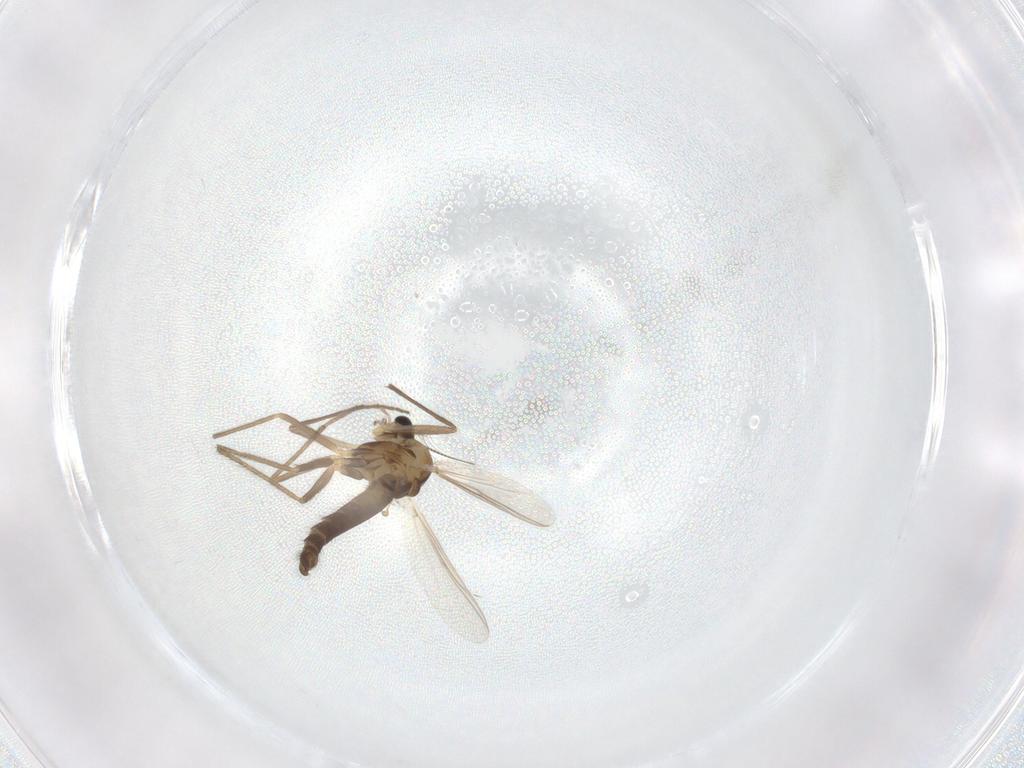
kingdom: Animalia
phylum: Arthropoda
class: Insecta
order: Diptera
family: Chironomidae
